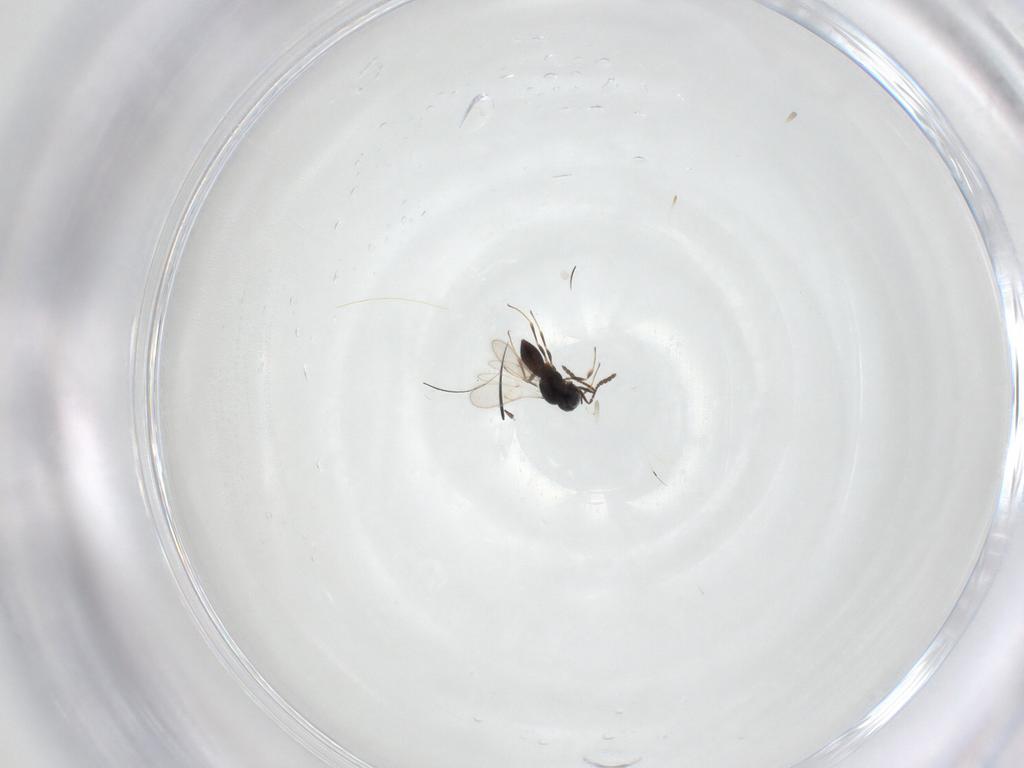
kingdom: Animalia
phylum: Arthropoda
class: Insecta
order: Hymenoptera
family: Scelionidae
